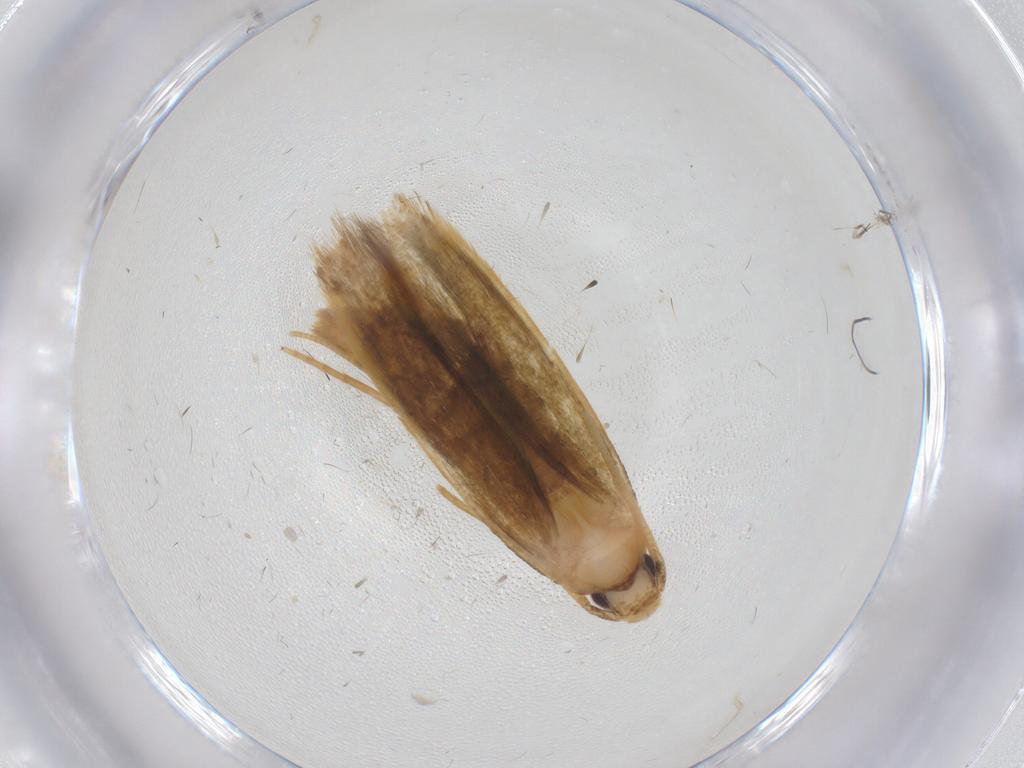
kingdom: Animalia
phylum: Arthropoda
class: Insecta
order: Lepidoptera
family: Tineidae
